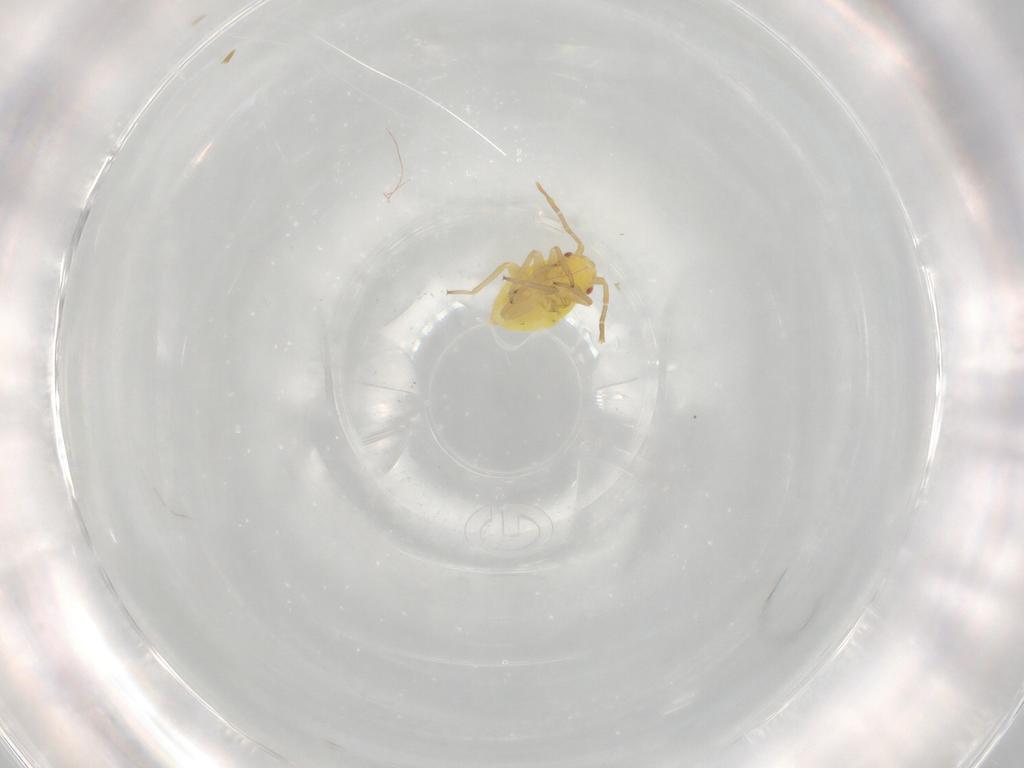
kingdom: Animalia
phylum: Arthropoda
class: Insecta
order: Hemiptera
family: Miridae
